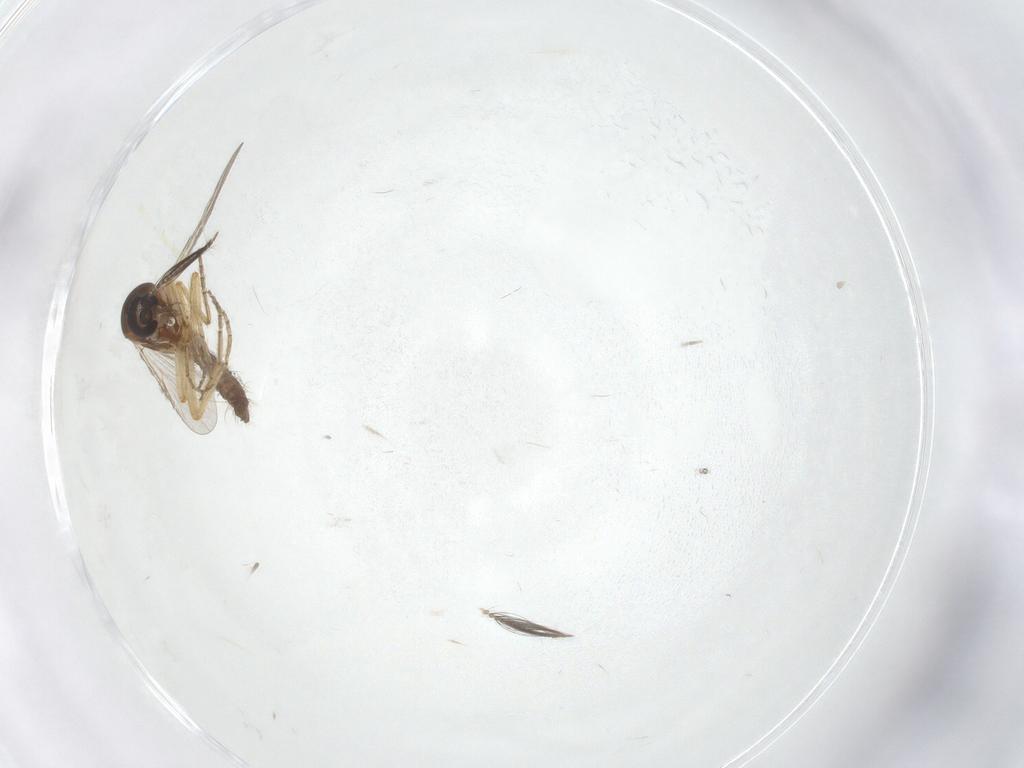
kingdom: Animalia
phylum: Arthropoda
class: Insecta
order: Diptera
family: Ceratopogonidae
